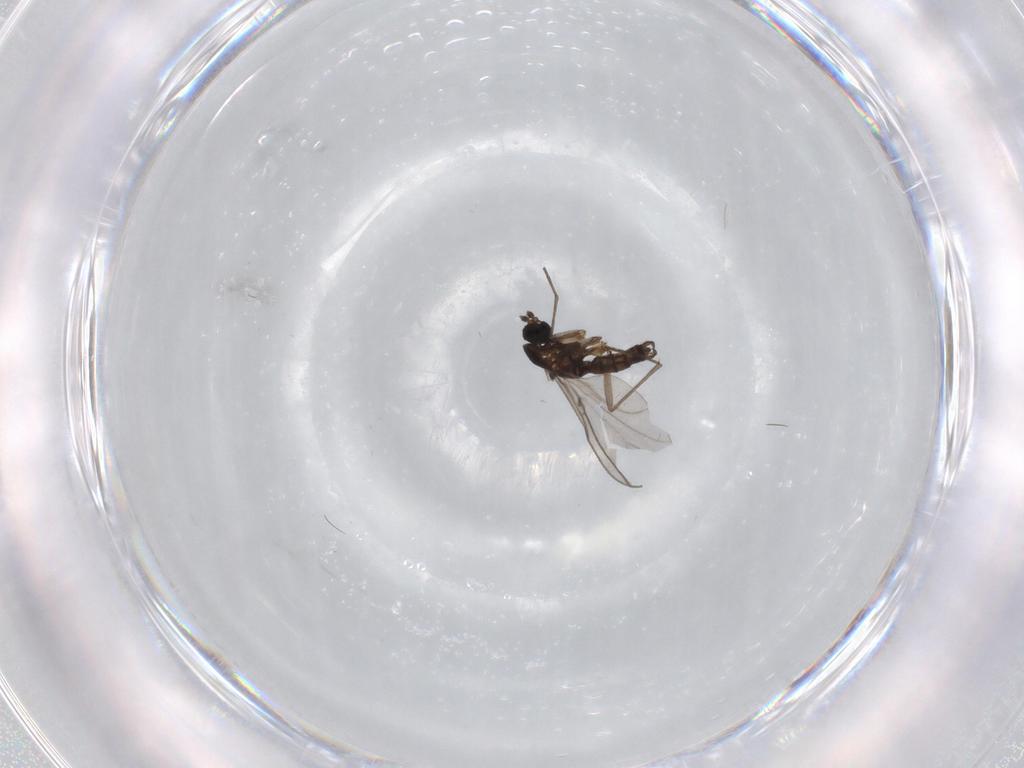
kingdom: Animalia
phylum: Arthropoda
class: Insecta
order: Diptera
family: Sciaridae
